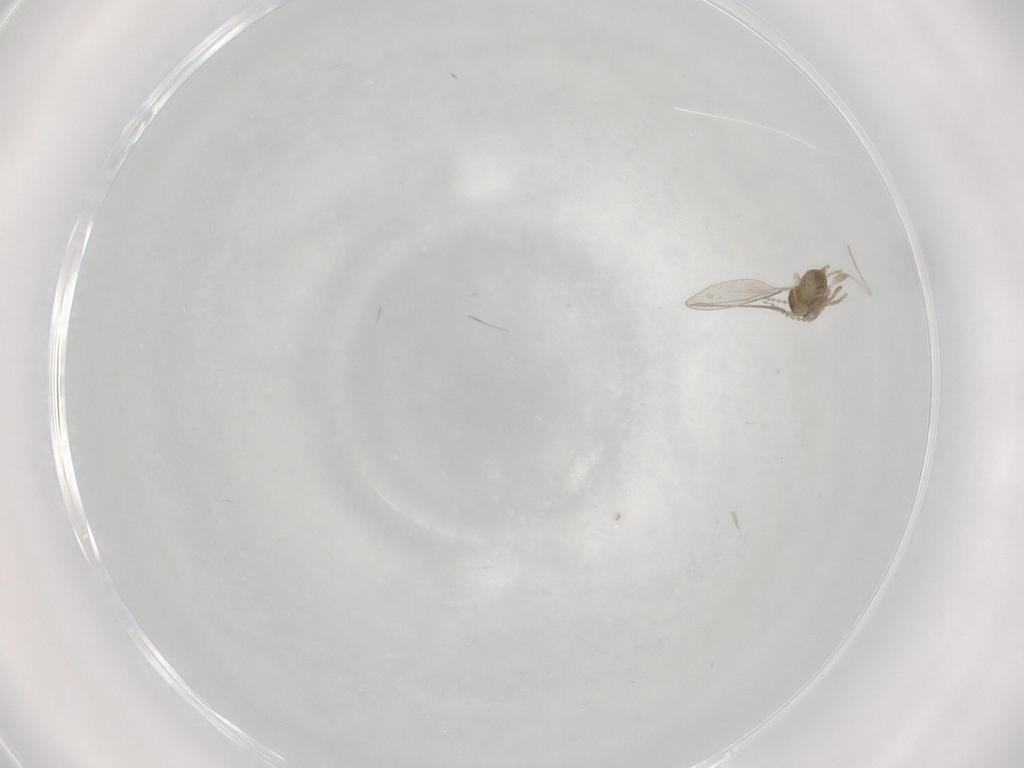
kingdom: Animalia
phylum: Arthropoda
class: Insecta
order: Diptera
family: Cecidomyiidae
